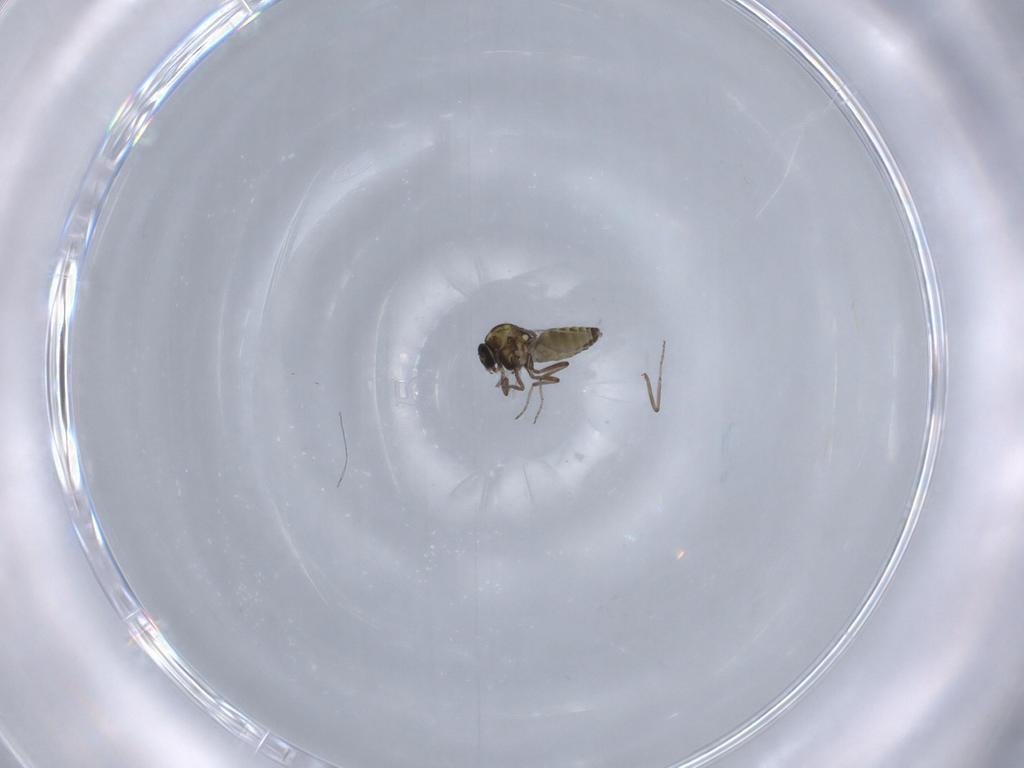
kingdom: Animalia
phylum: Arthropoda
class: Insecta
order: Diptera
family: Ceratopogonidae
